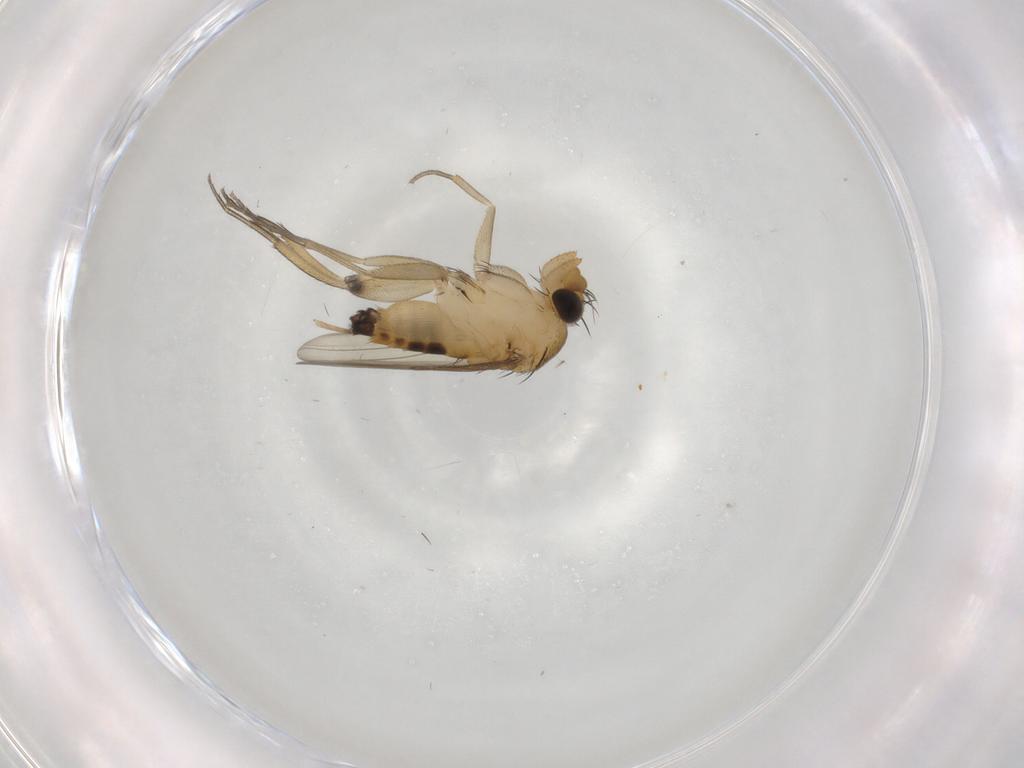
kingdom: Animalia
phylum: Arthropoda
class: Insecta
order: Diptera
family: Phoridae
